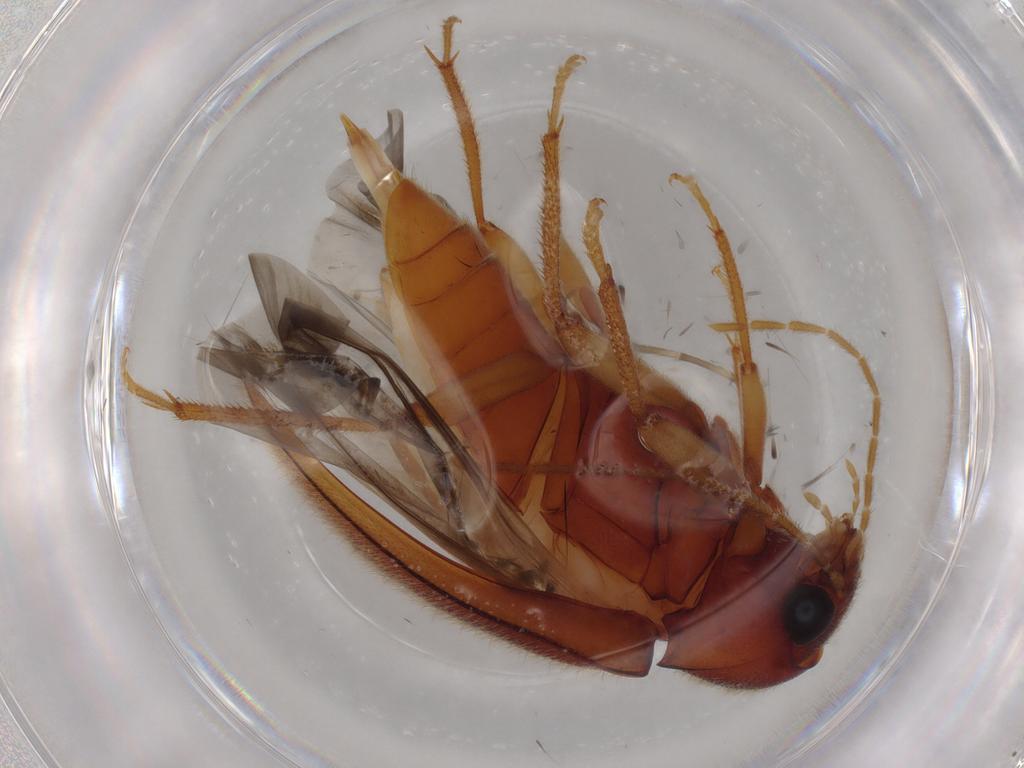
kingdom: Animalia
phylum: Arthropoda
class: Insecta
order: Coleoptera
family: Ptilodactylidae
